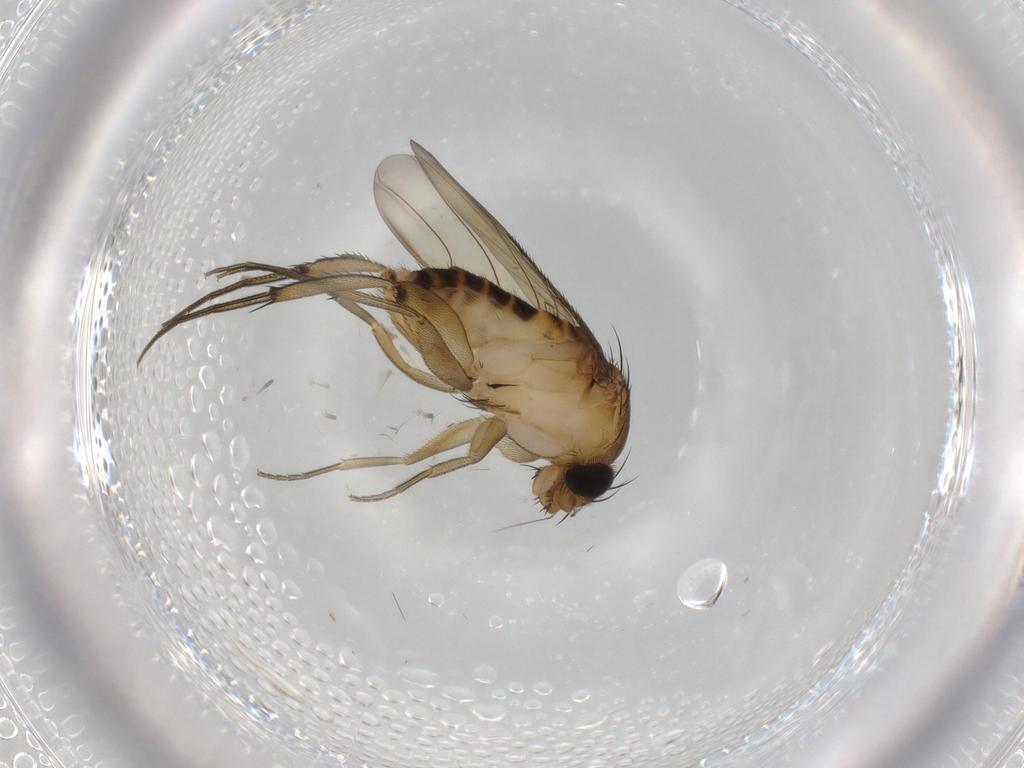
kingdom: Animalia
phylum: Arthropoda
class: Insecta
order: Diptera
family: Phoridae
